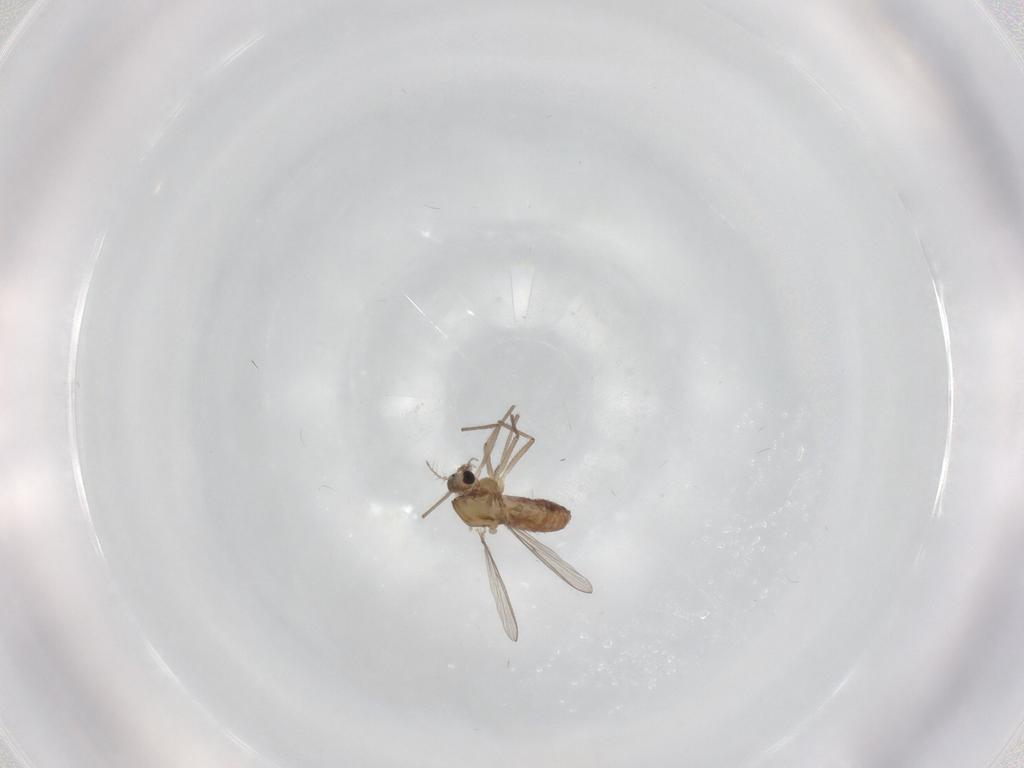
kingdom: Animalia
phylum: Arthropoda
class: Insecta
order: Diptera
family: Chironomidae
